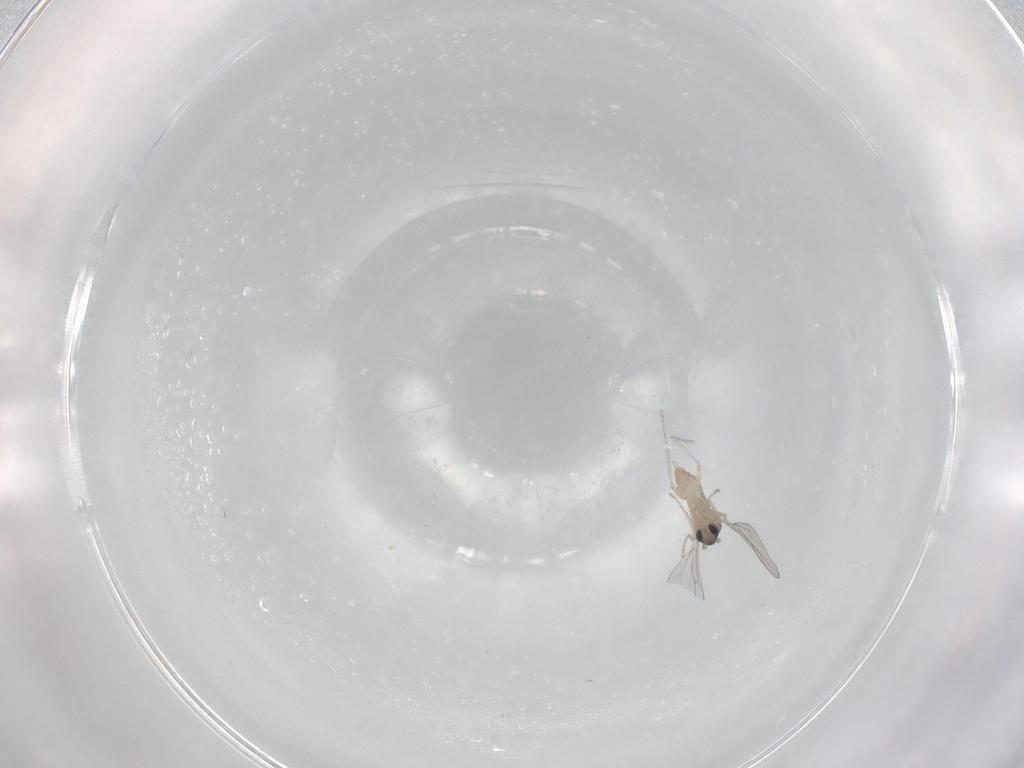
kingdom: Animalia
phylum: Arthropoda
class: Insecta
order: Diptera
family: Cecidomyiidae
